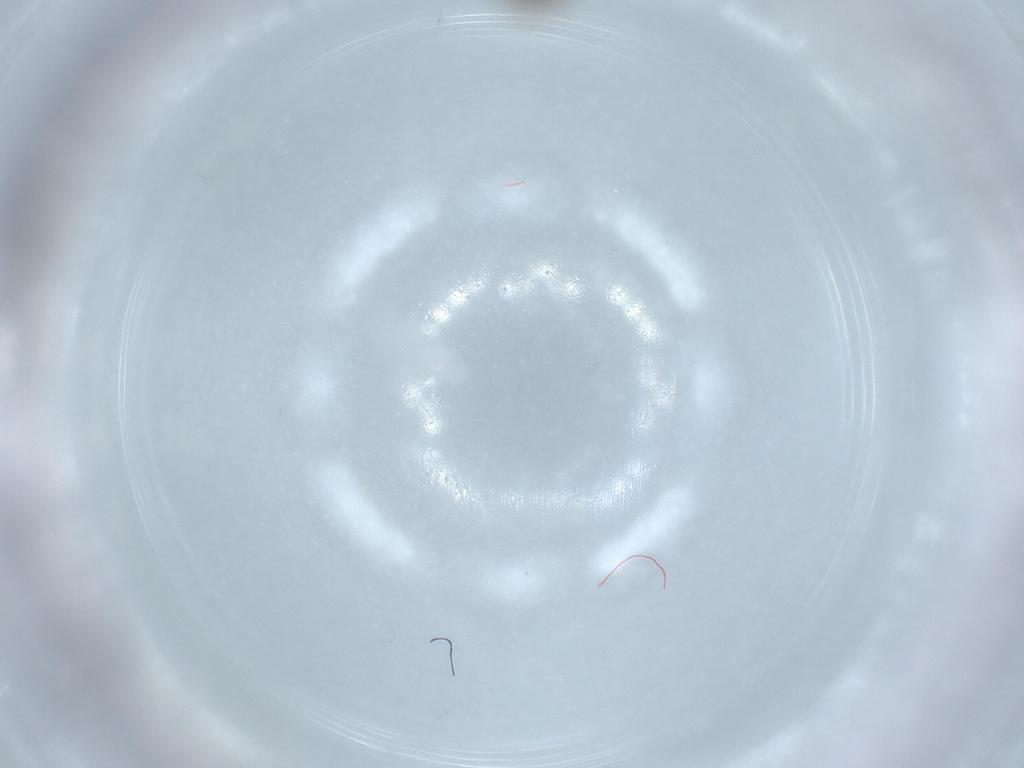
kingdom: Animalia
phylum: Arthropoda
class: Insecta
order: Hymenoptera
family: Scelionidae
